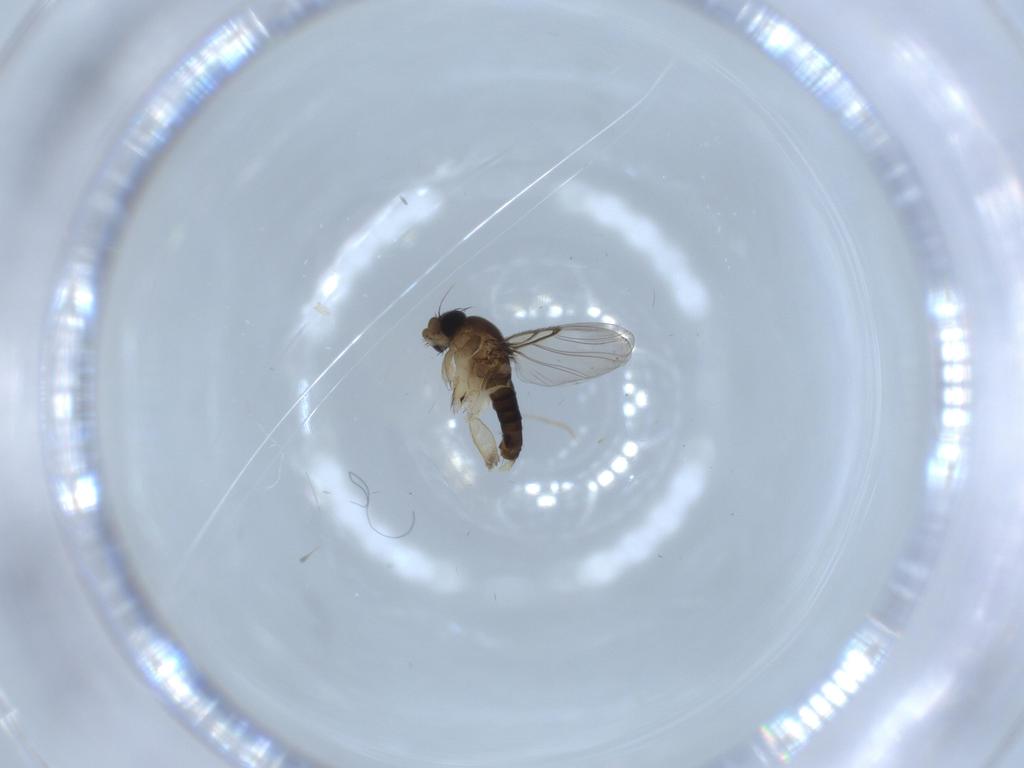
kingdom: Animalia
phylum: Arthropoda
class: Insecta
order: Diptera
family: Phoridae
